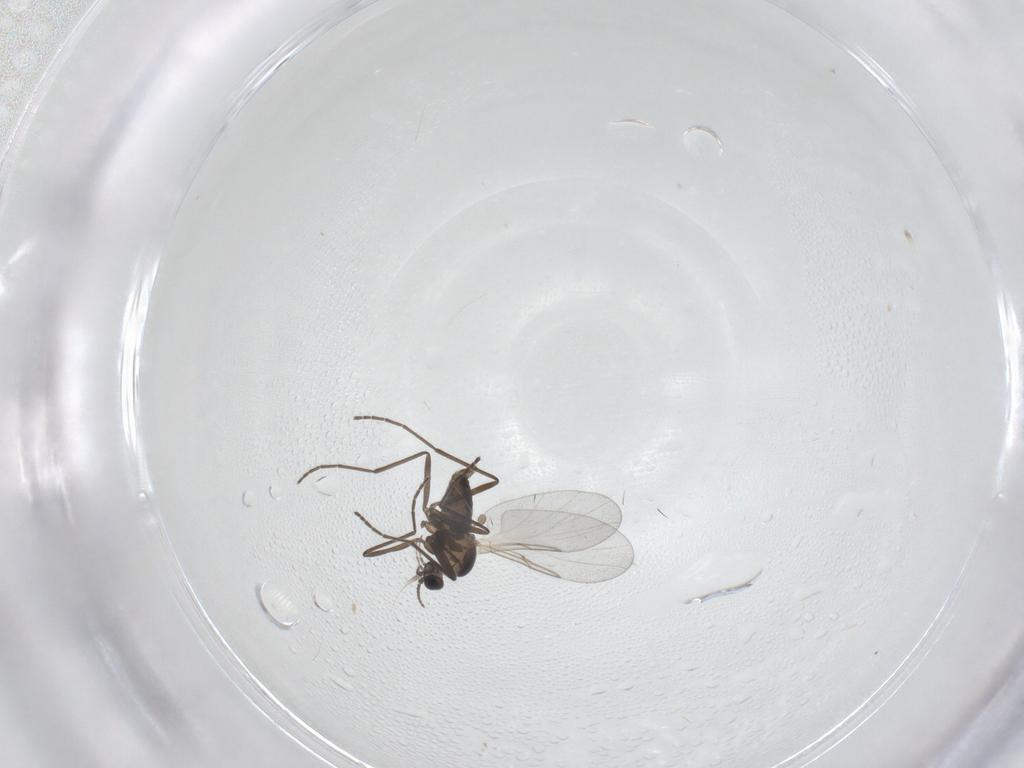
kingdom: Animalia
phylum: Arthropoda
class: Insecta
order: Diptera
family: Cecidomyiidae
